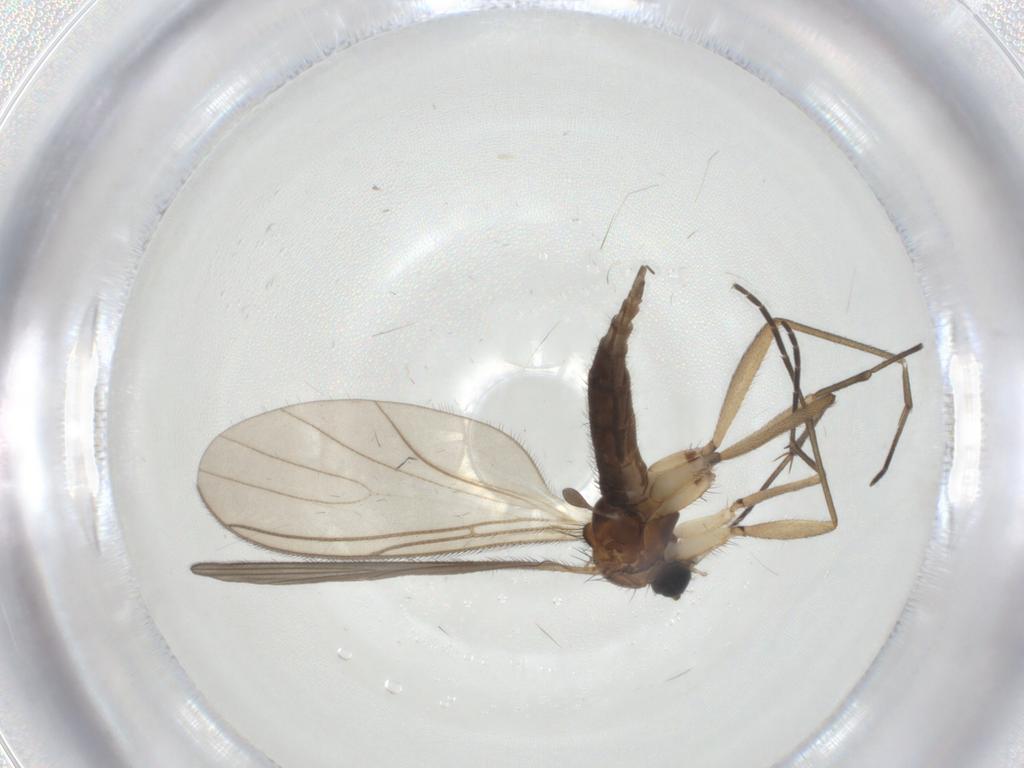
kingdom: Animalia
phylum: Arthropoda
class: Insecta
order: Diptera
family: Sciaridae
